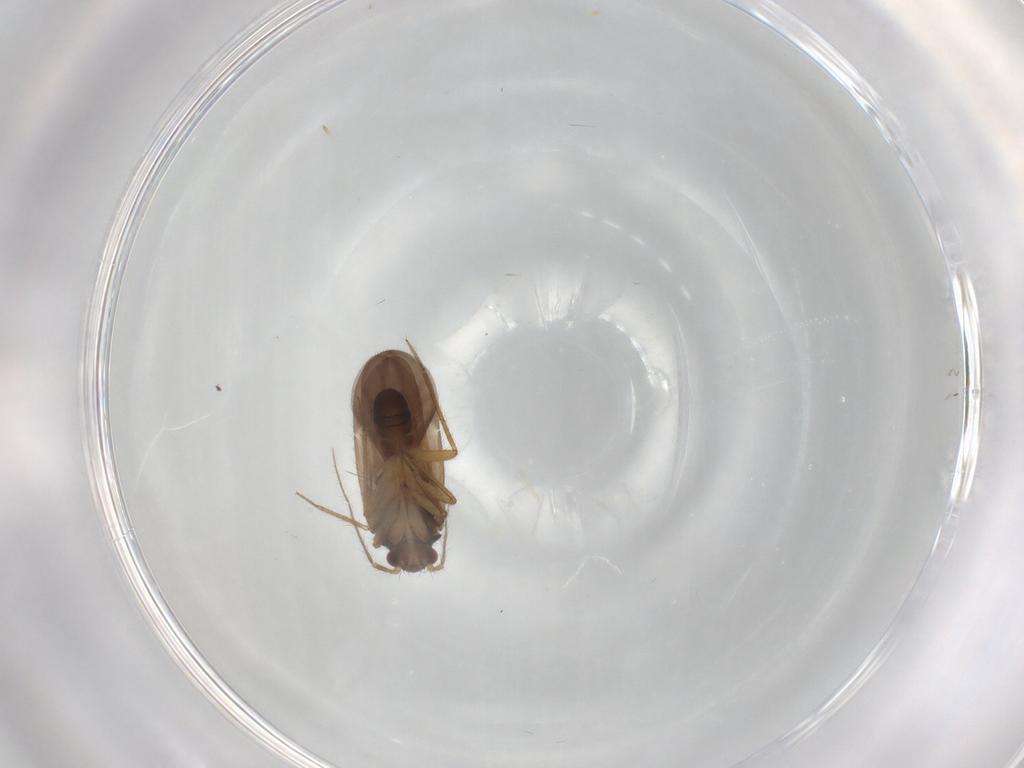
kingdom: Animalia
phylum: Arthropoda
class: Insecta
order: Hemiptera
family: Ceratocombidae
